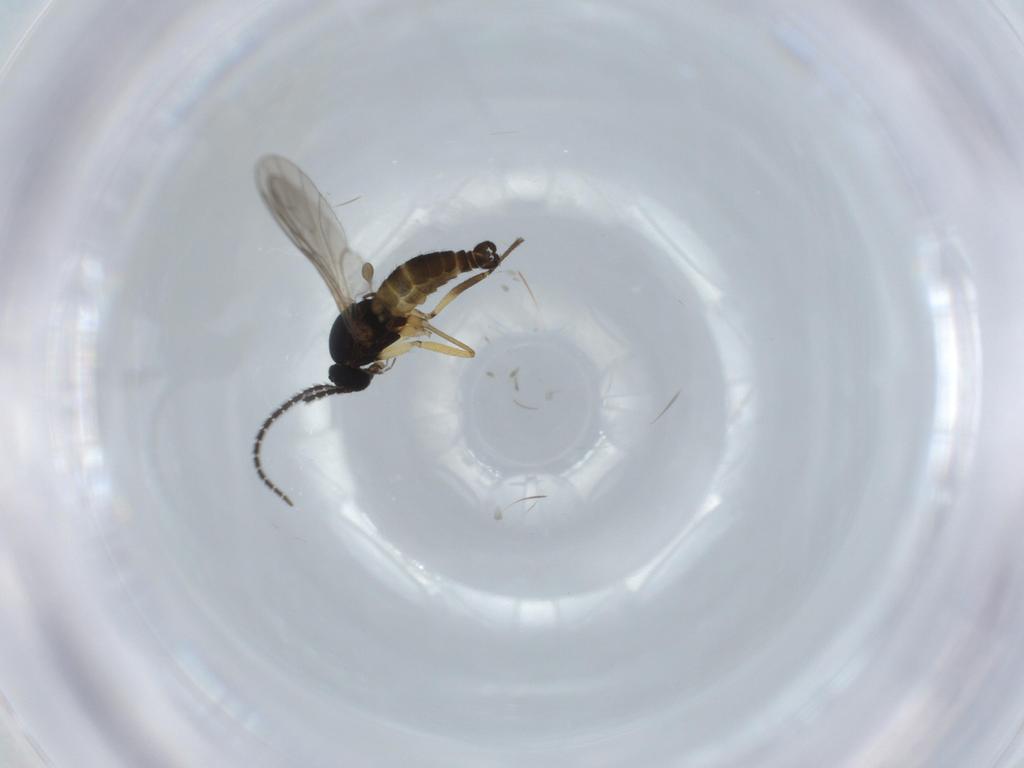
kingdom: Animalia
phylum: Arthropoda
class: Insecta
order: Diptera
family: Sciaridae
